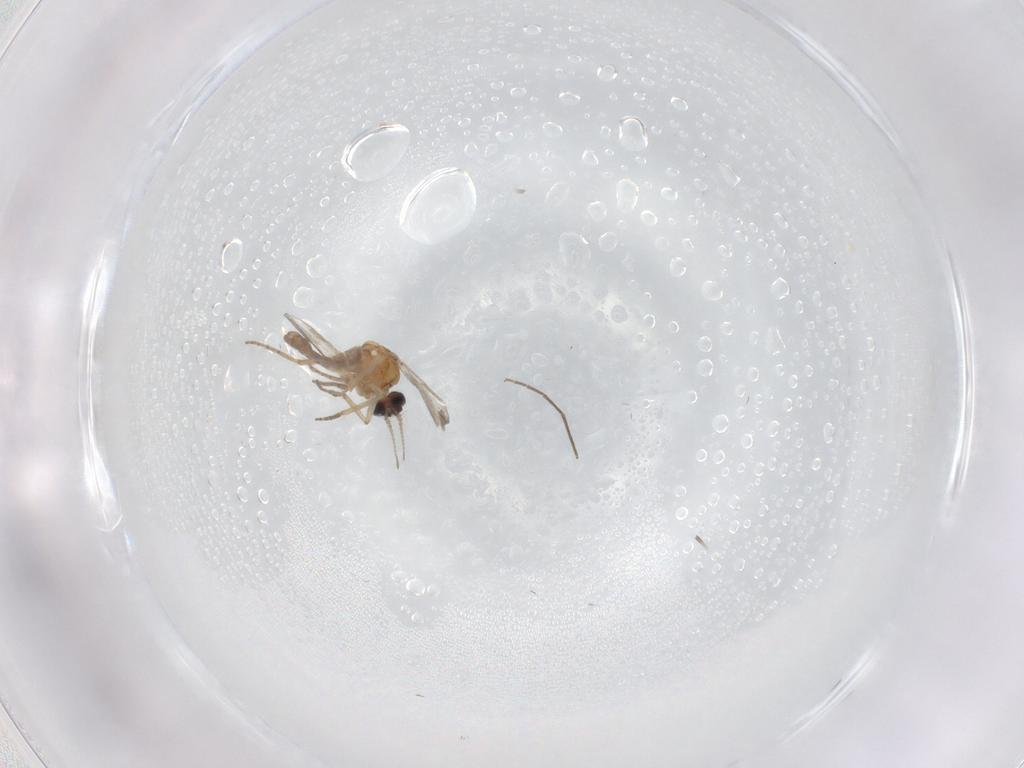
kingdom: Animalia
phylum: Arthropoda
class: Insecta
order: Diptera
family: Ceratopogonidae
